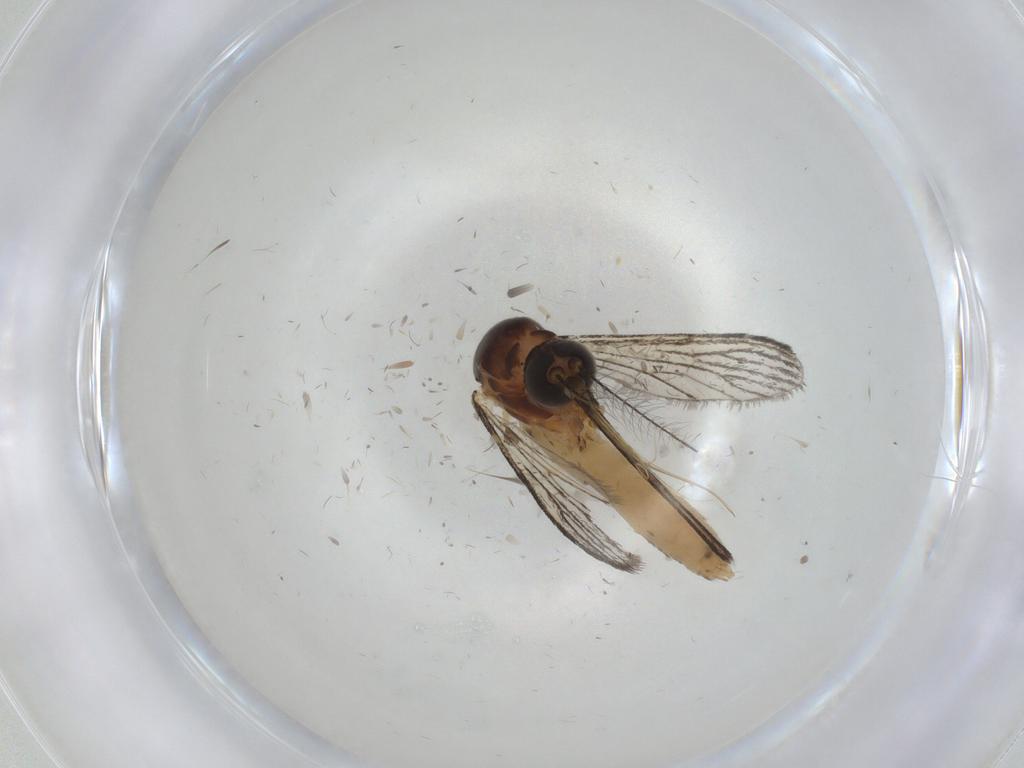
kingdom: Animalia
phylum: Arthropoda
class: Insecta
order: Diptera
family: Culicidae
